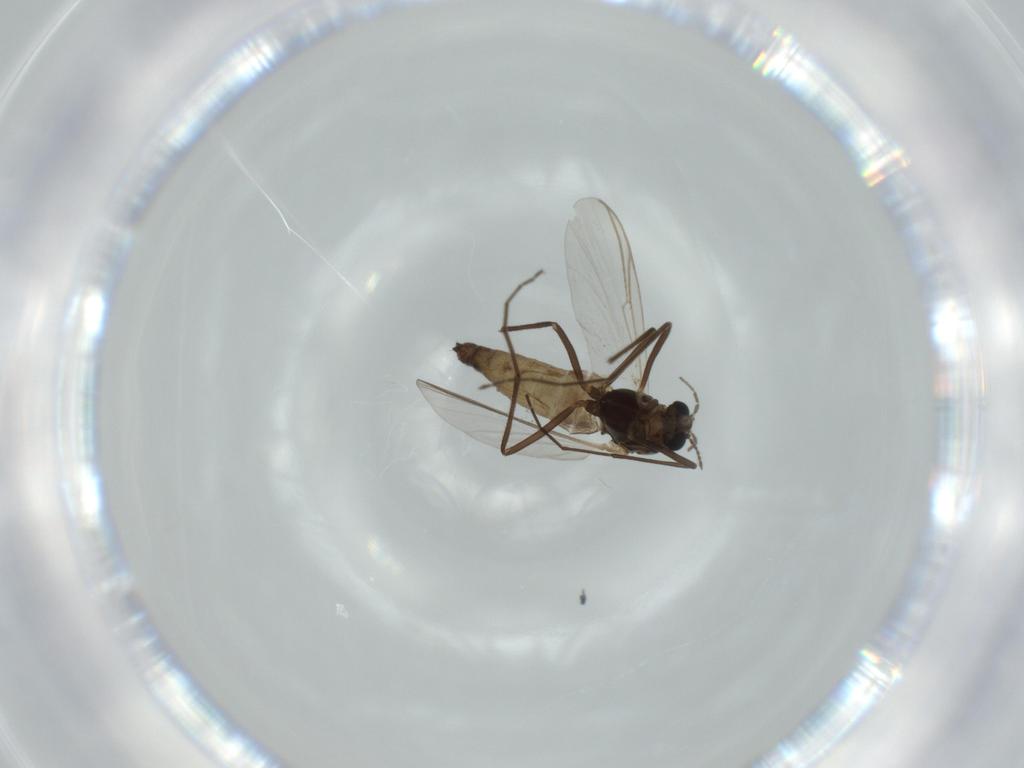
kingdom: Animalia
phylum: Arthropoda
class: Insecta
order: Diptera
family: Chironomidae
